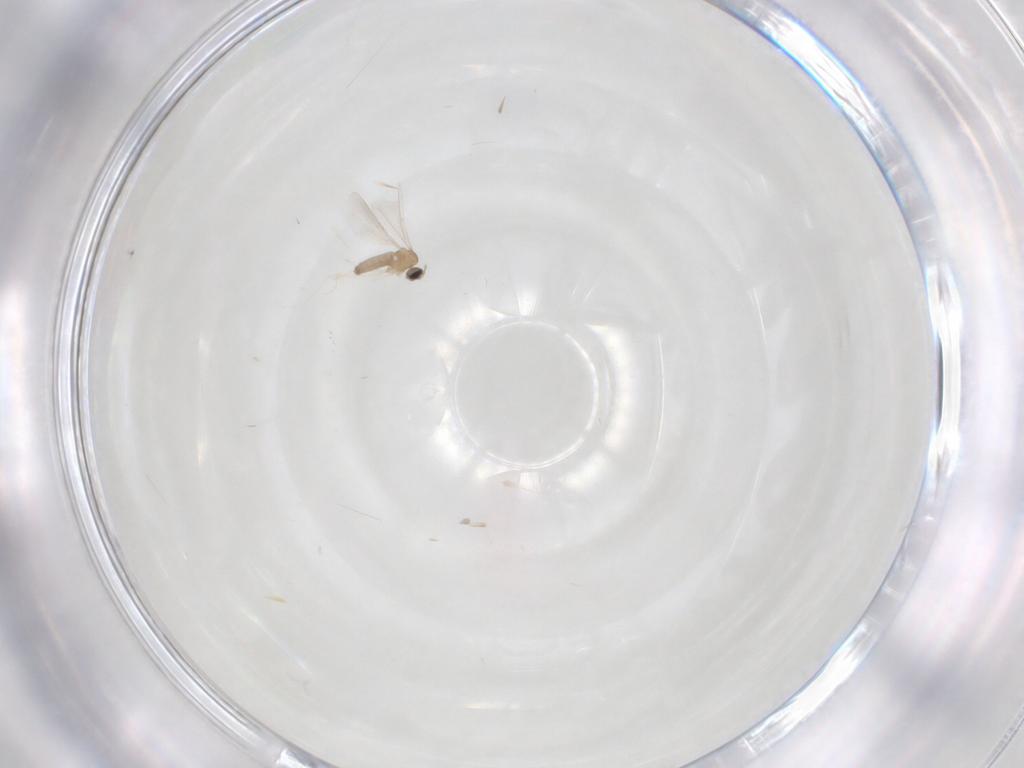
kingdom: Animalia
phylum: Arthropoda
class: Insecta
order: Diptera
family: Cecidomyiidae
